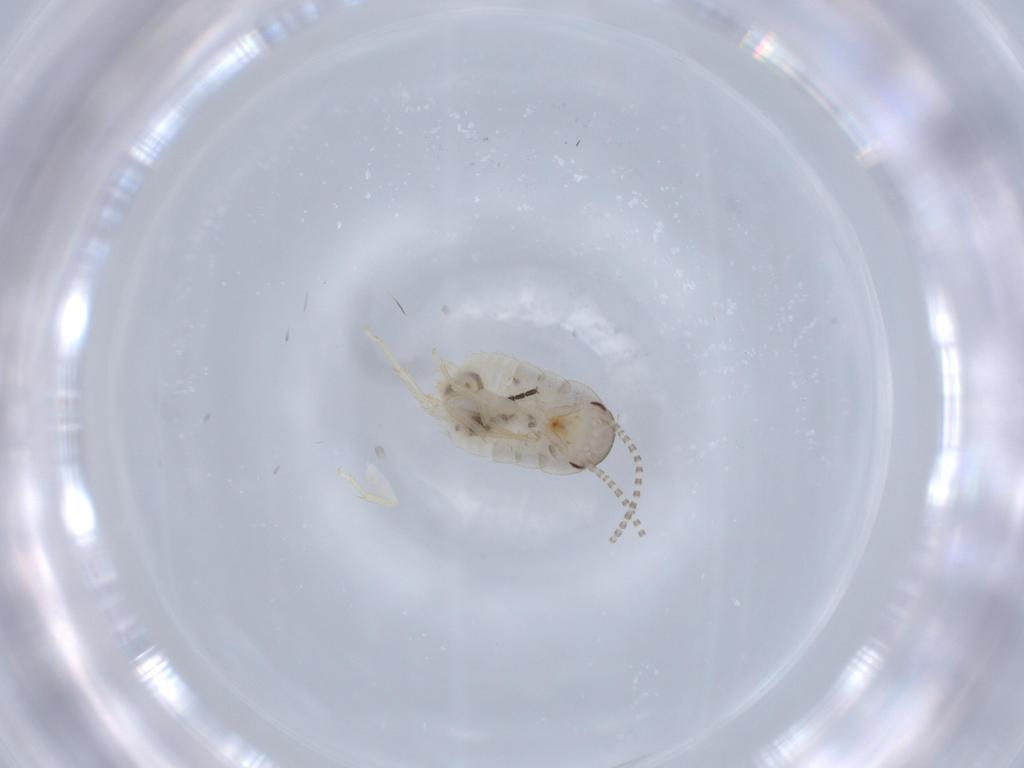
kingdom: Animalia
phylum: Arthropoda
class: Insecta
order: Blattodea
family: Ectobiidae
